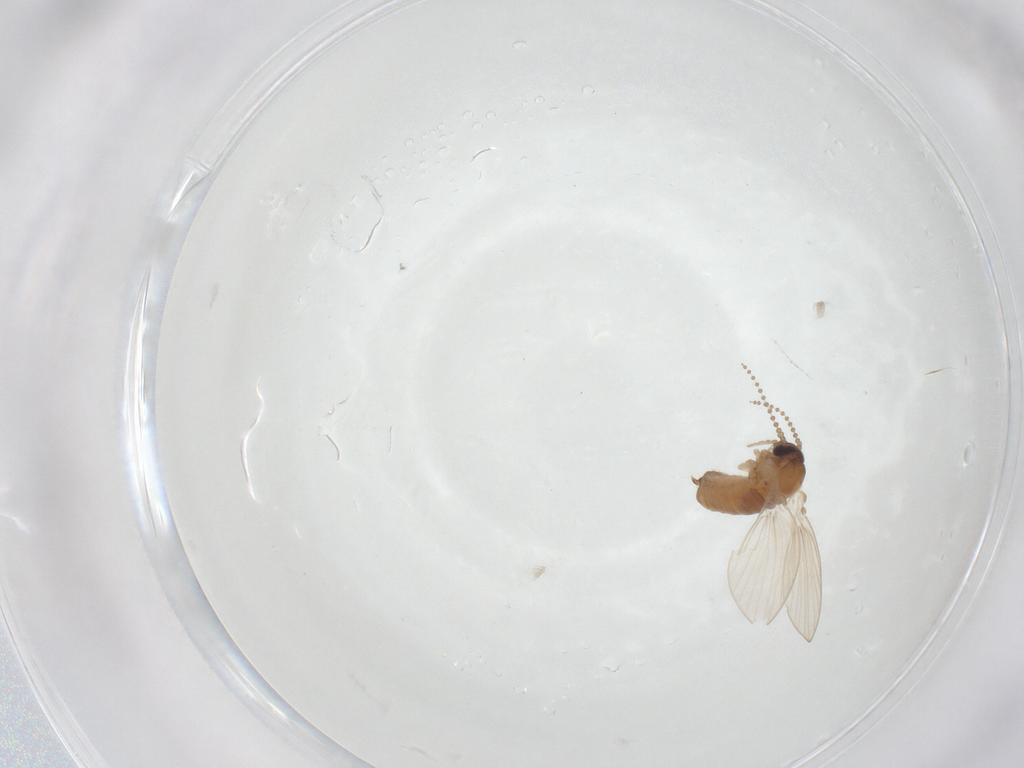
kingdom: Animalia
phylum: Arthropoda
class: Insecta
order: Diptera
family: Psychodidae
